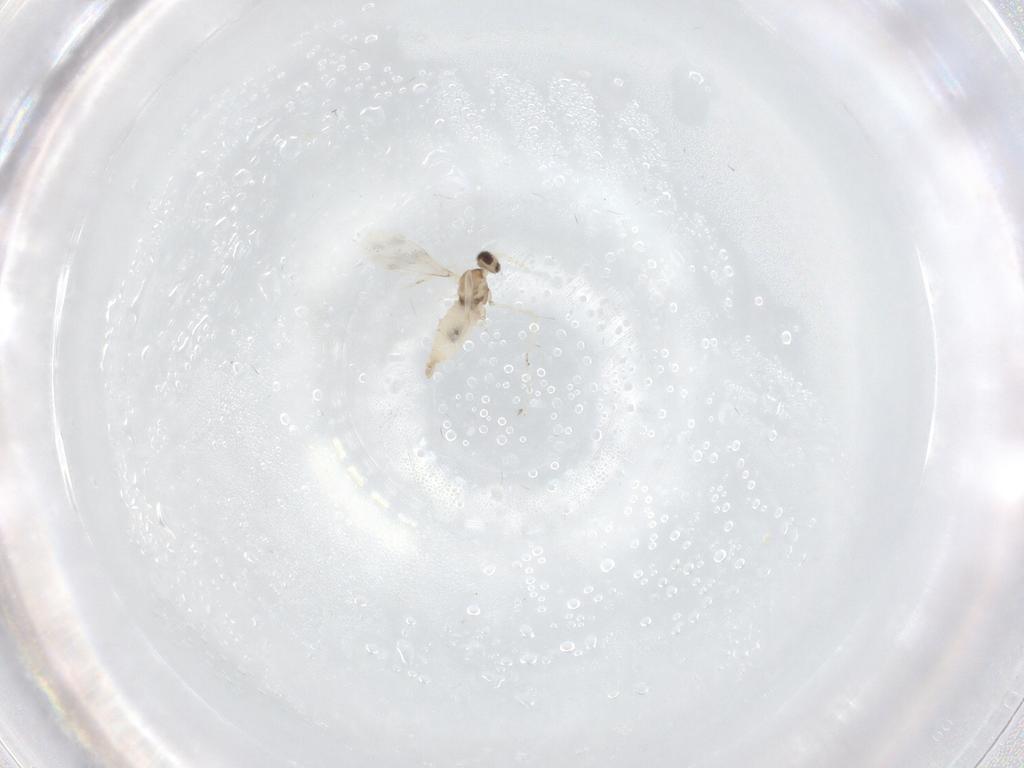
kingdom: Animalia
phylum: Arthropoda
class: Insecta
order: Diptera
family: Cecidomyiidae
